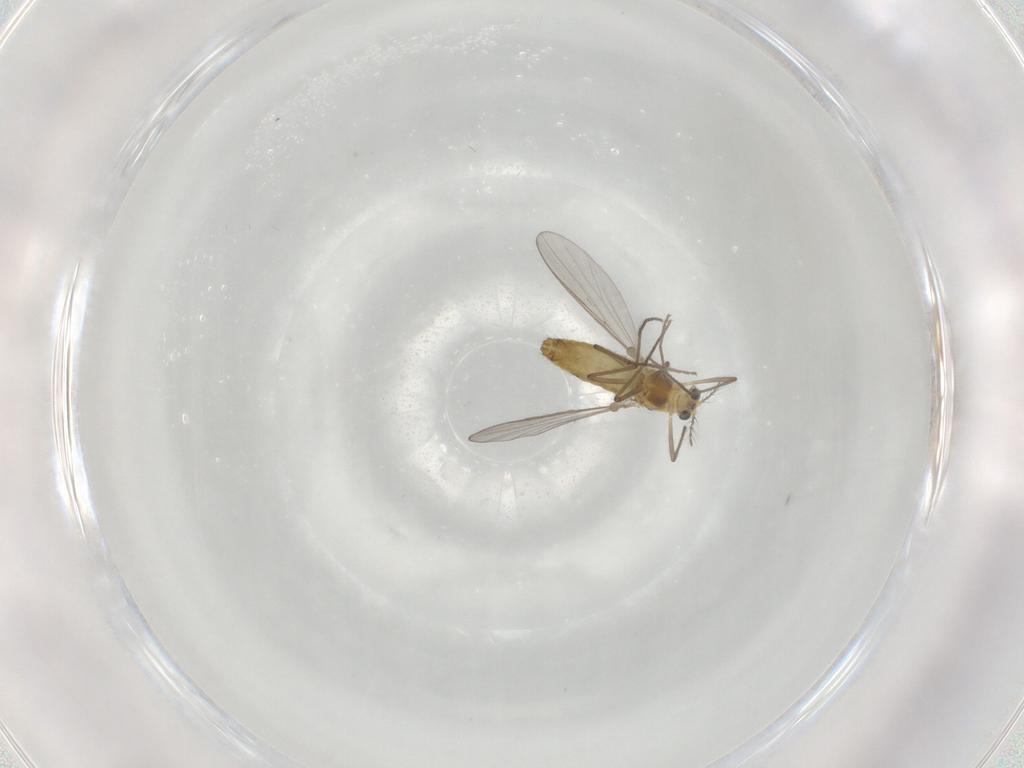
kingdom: Animalia
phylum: Arthropoda
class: Insecta
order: Diptera
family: Chironomidae
